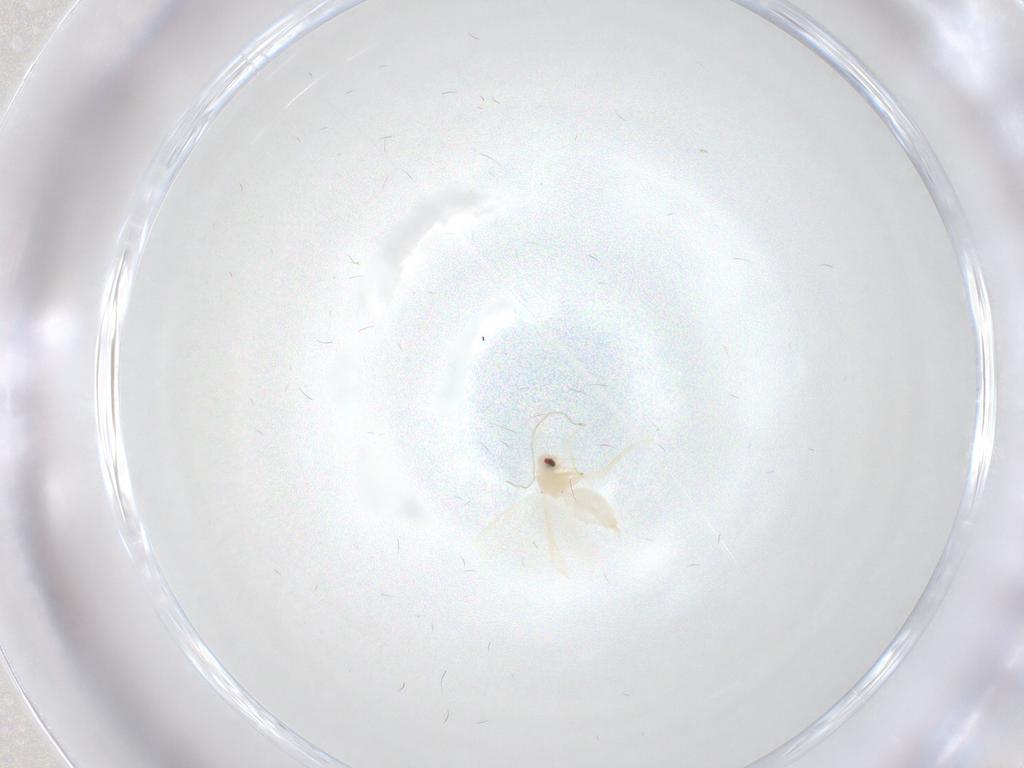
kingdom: Animalia
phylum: Arthropoda
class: Insecta
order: Hemiptera
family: Aleyrodidae
